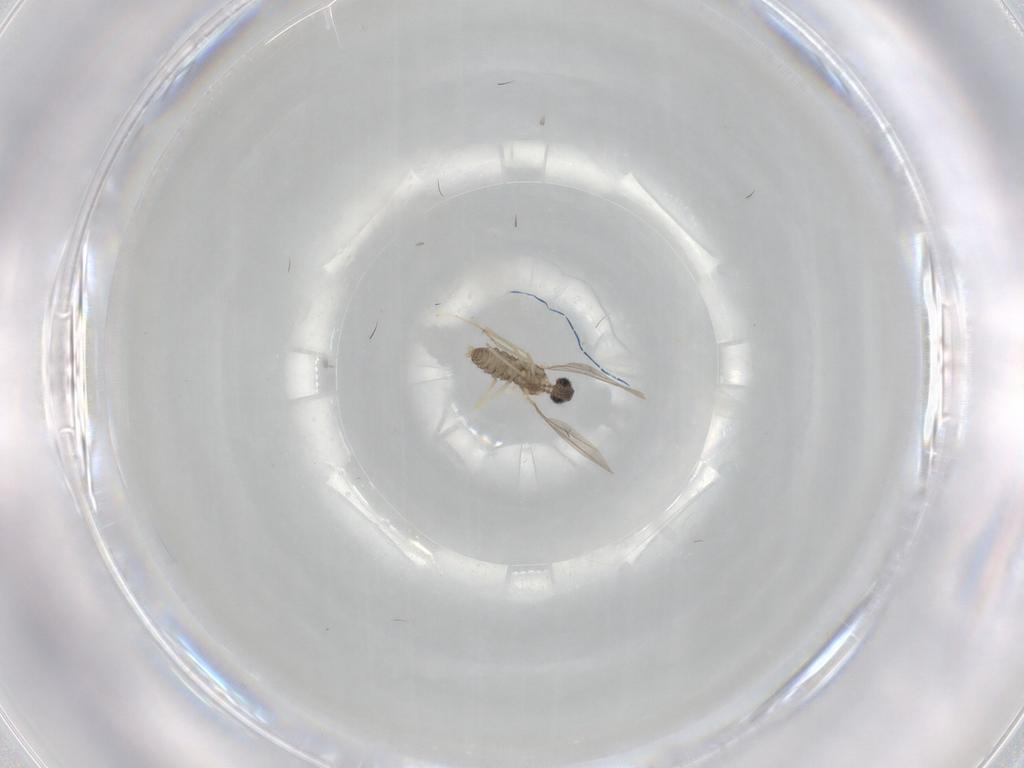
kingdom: Animalia
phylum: Arthropoda
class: Insecta
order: Diptera
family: Cecidomyiidae
